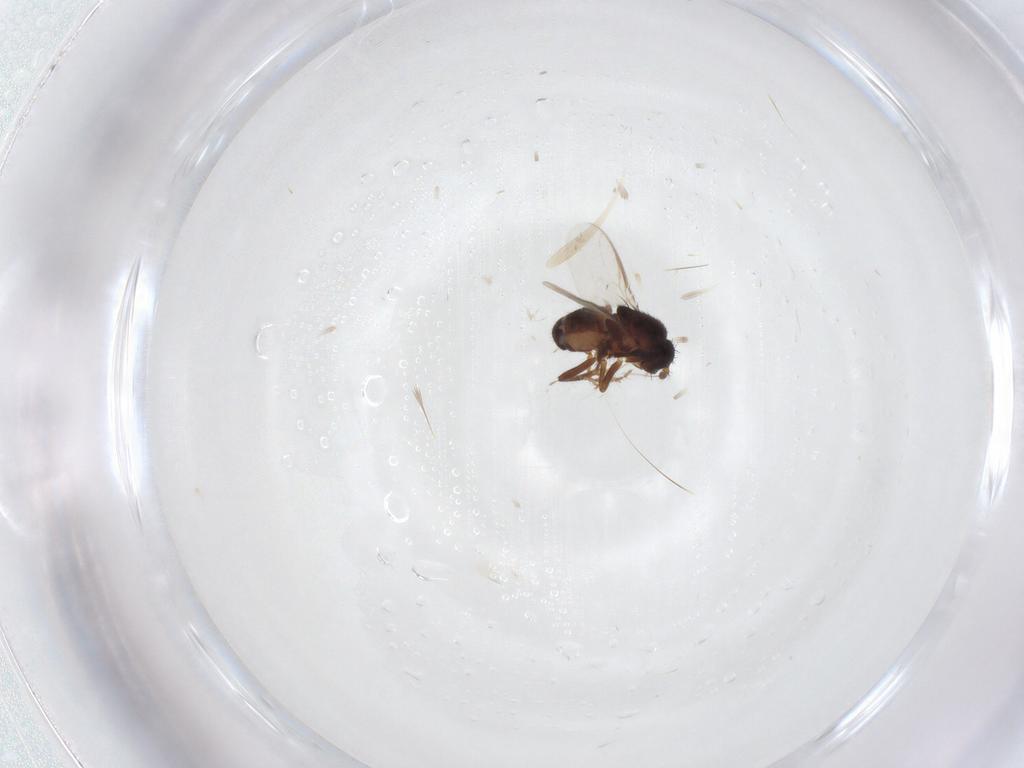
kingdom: Animalia
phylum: Arthropoda
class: Insecta
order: Diptera
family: Sphaeroceridae
